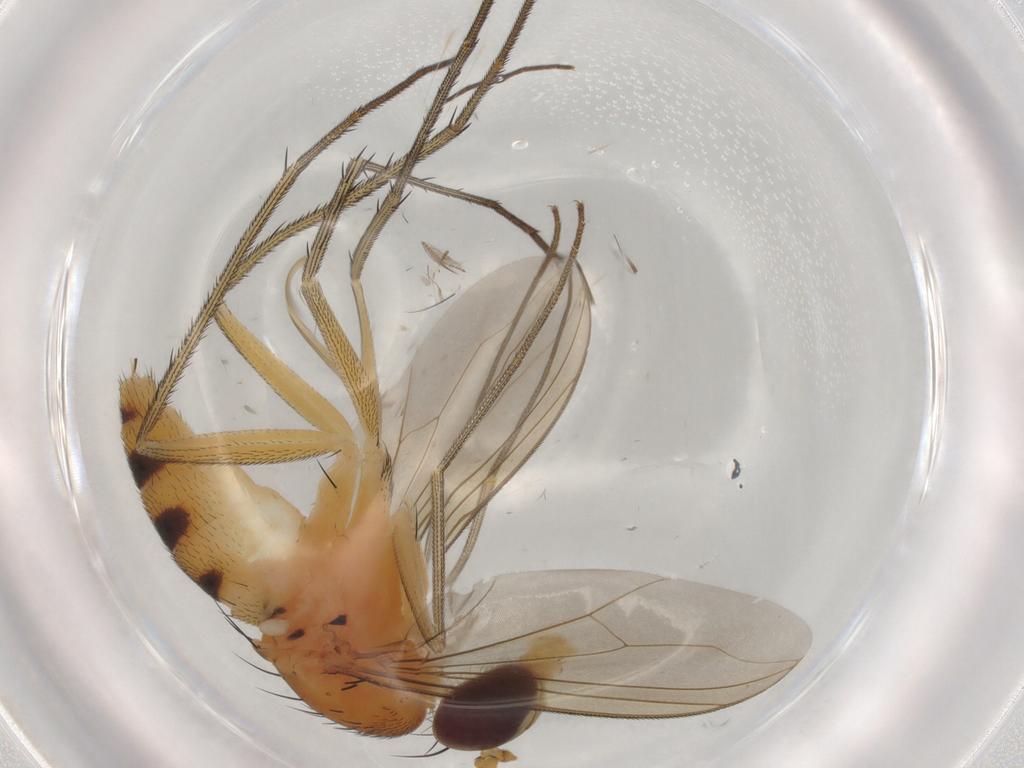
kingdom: Animalia
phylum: Arthropoda
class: Insecta
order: Diptera
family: Dolichopodidae
